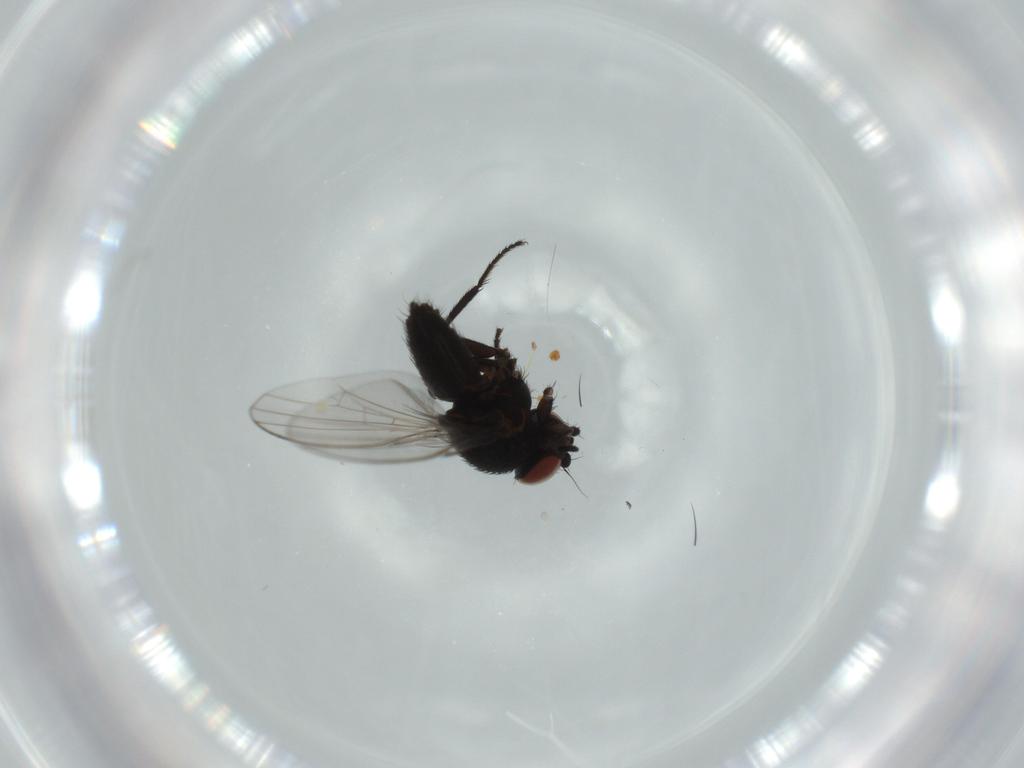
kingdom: Animalia
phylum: Arthropoda
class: Insecta
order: Diptera
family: Milichiidae
